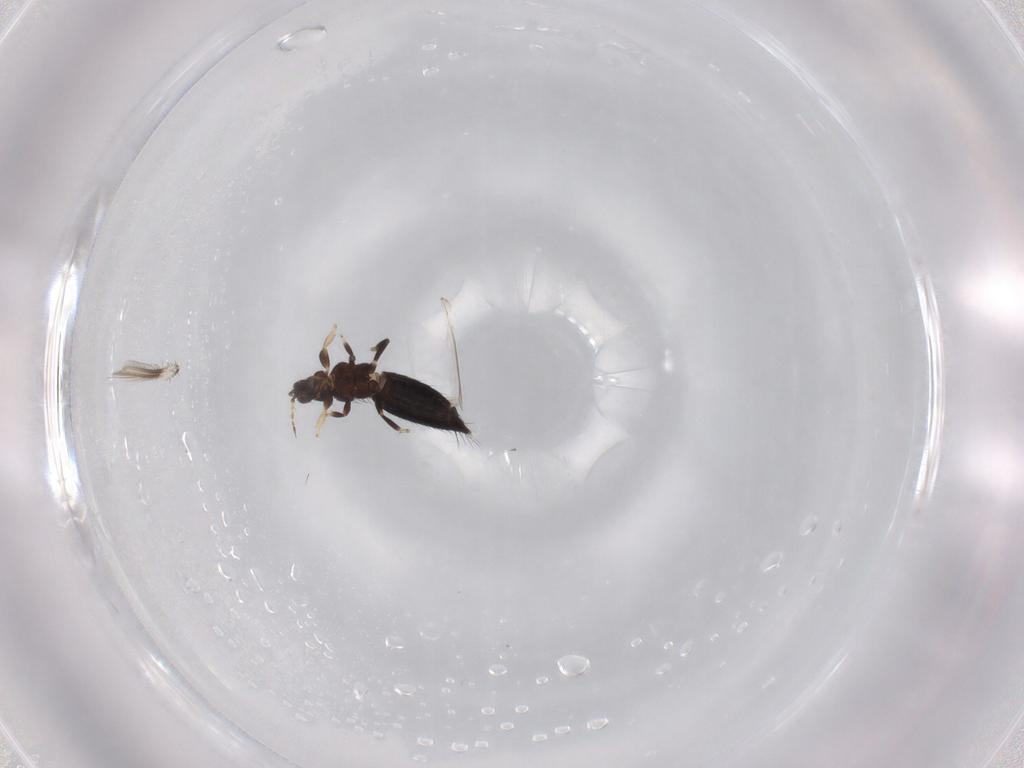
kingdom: Animalia
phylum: Arthropoda
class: Insecta
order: Thysanoptera
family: Thripidae
